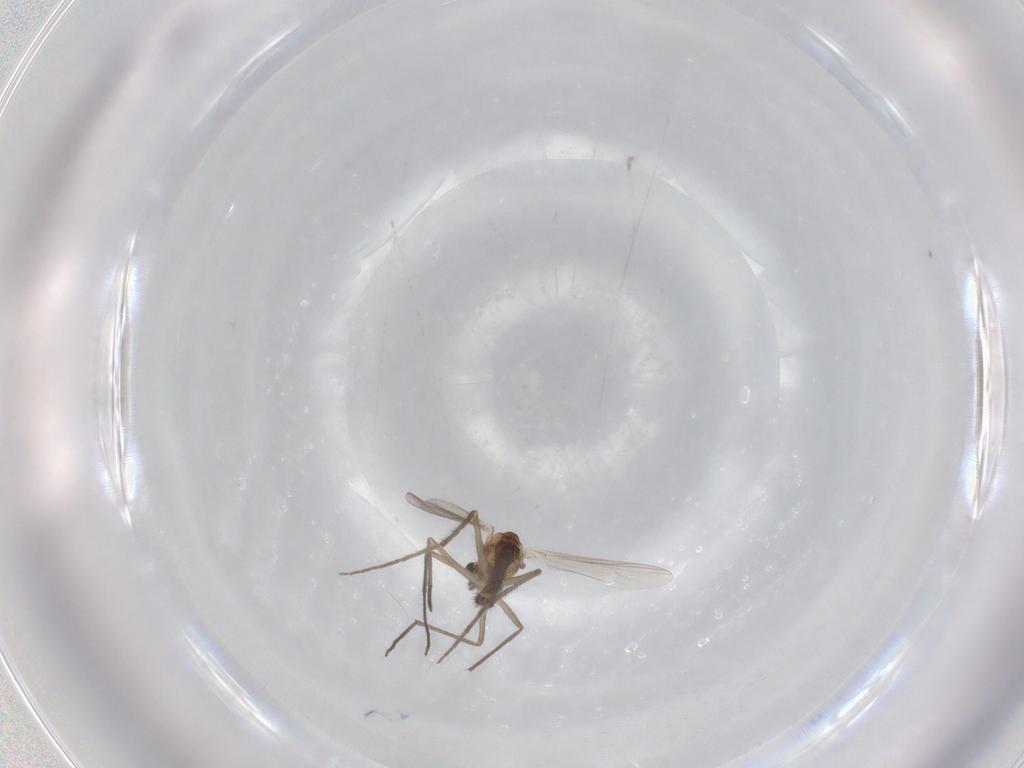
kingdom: Animalia
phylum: Arthropoda
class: Insecta
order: Diptera
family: Chironomidae
